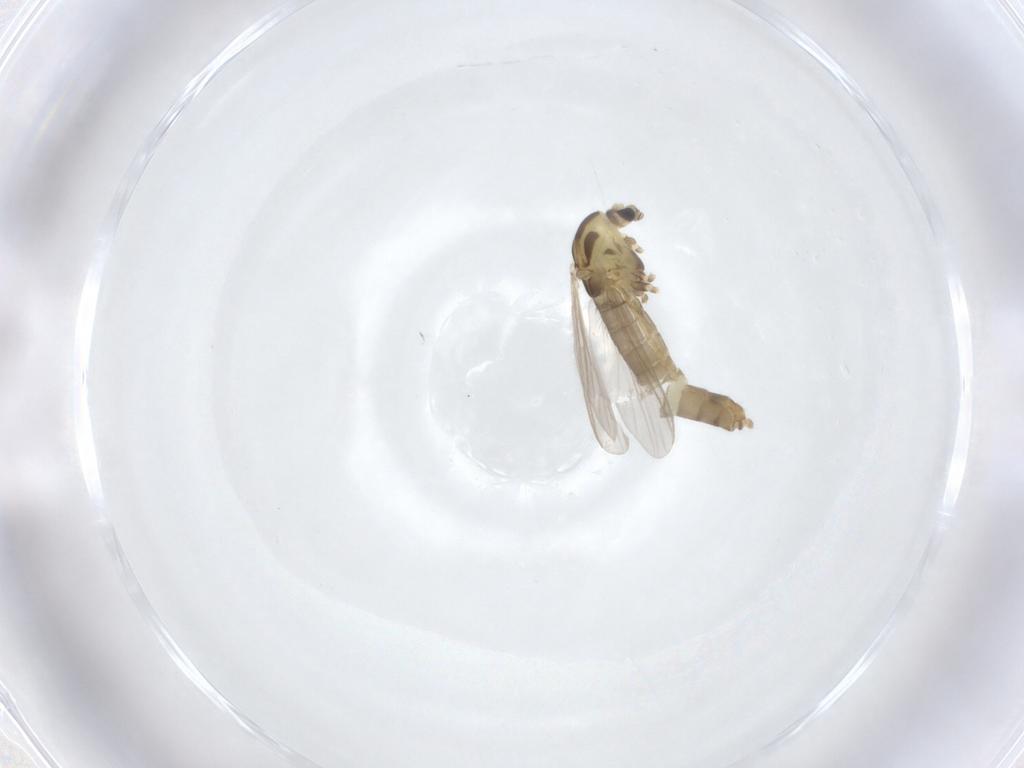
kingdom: Animalia
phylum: Arthropoda
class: Insecta
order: Diptera
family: Chironomidae
